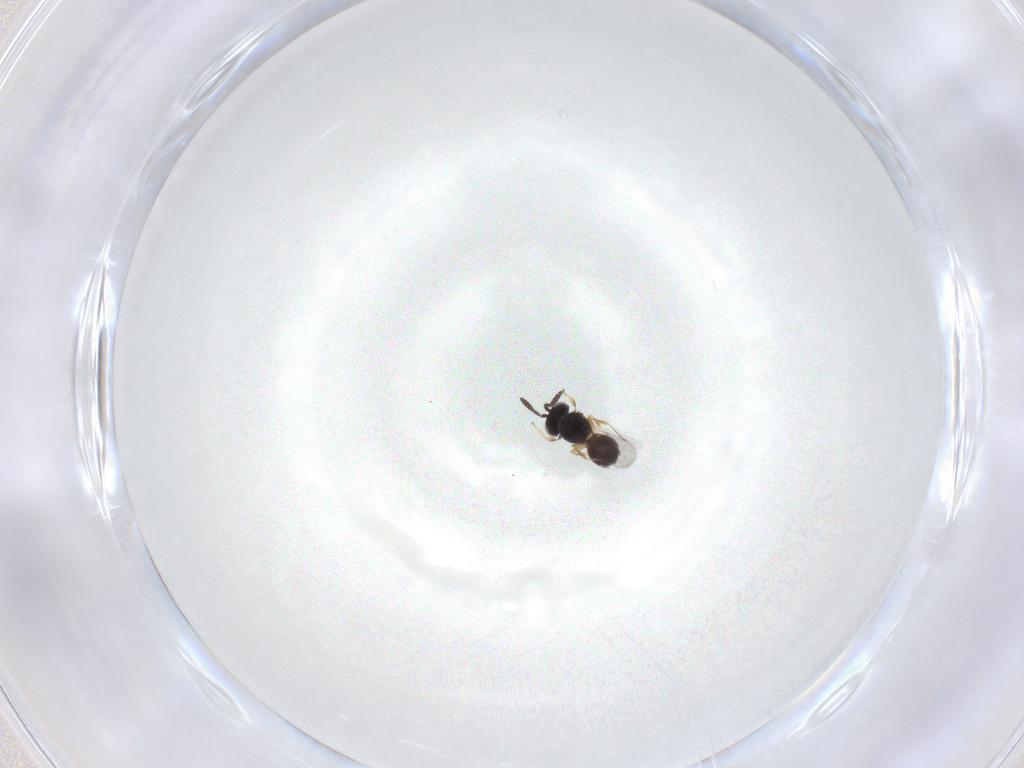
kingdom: Animalia
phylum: Arthropoda
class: Insecta
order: Hymenoptera
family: Scelionidae
